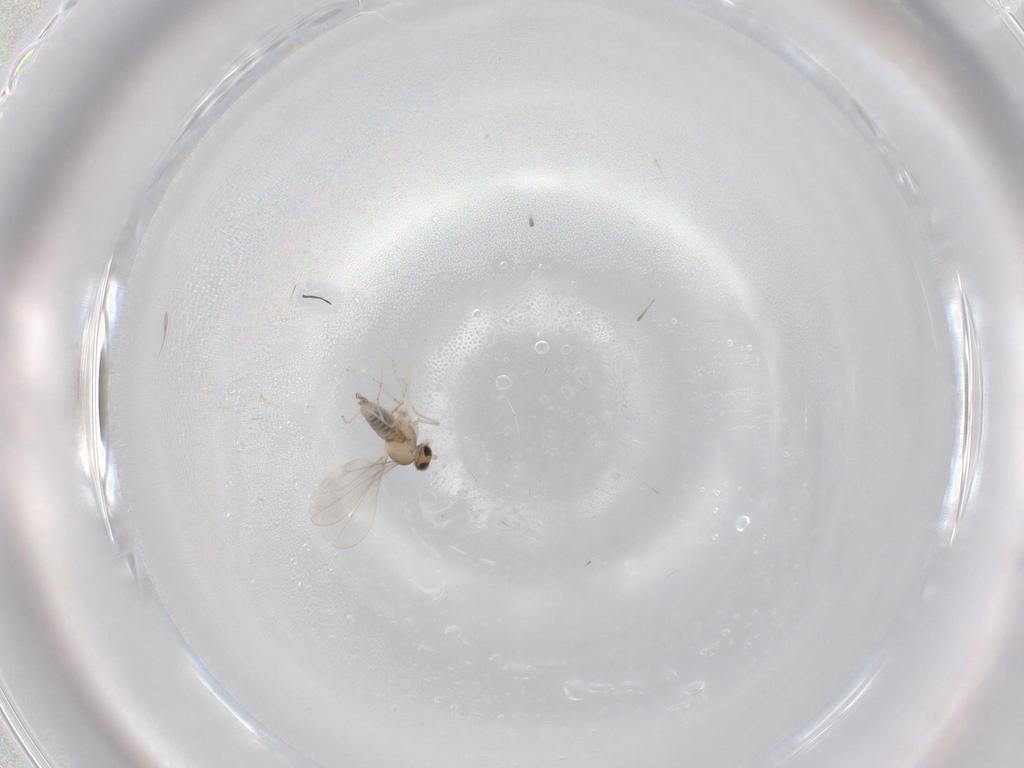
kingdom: Animalia
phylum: Arthropoda
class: Insecta
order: Diptera
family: Cecidomyiidae
